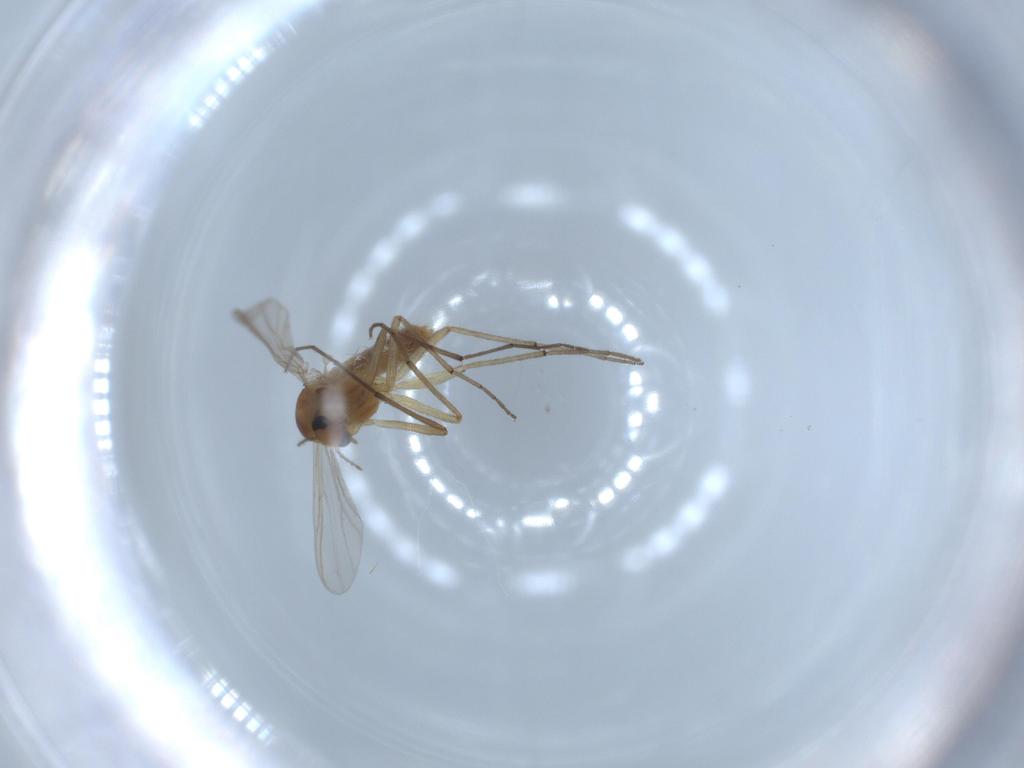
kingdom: Animalia
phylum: Arthropoda
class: Insecta
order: Diptera
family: Chironomidae
